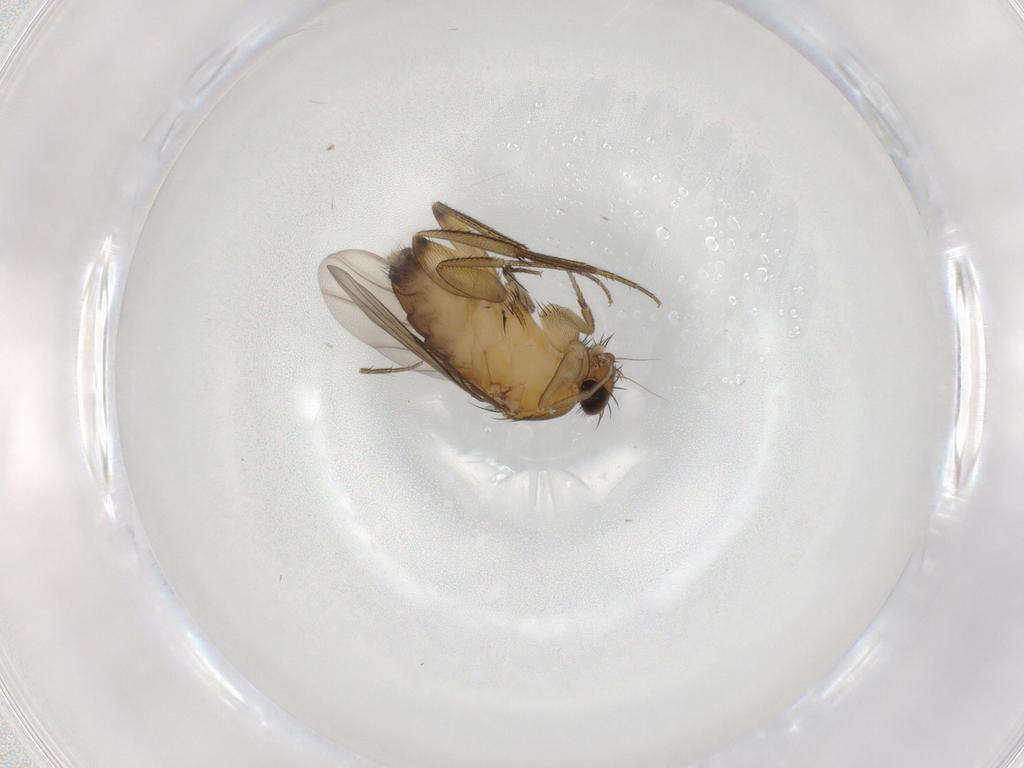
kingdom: Animalia
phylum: Arthropoda
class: Insecta
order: Diptera
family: Phoridae
